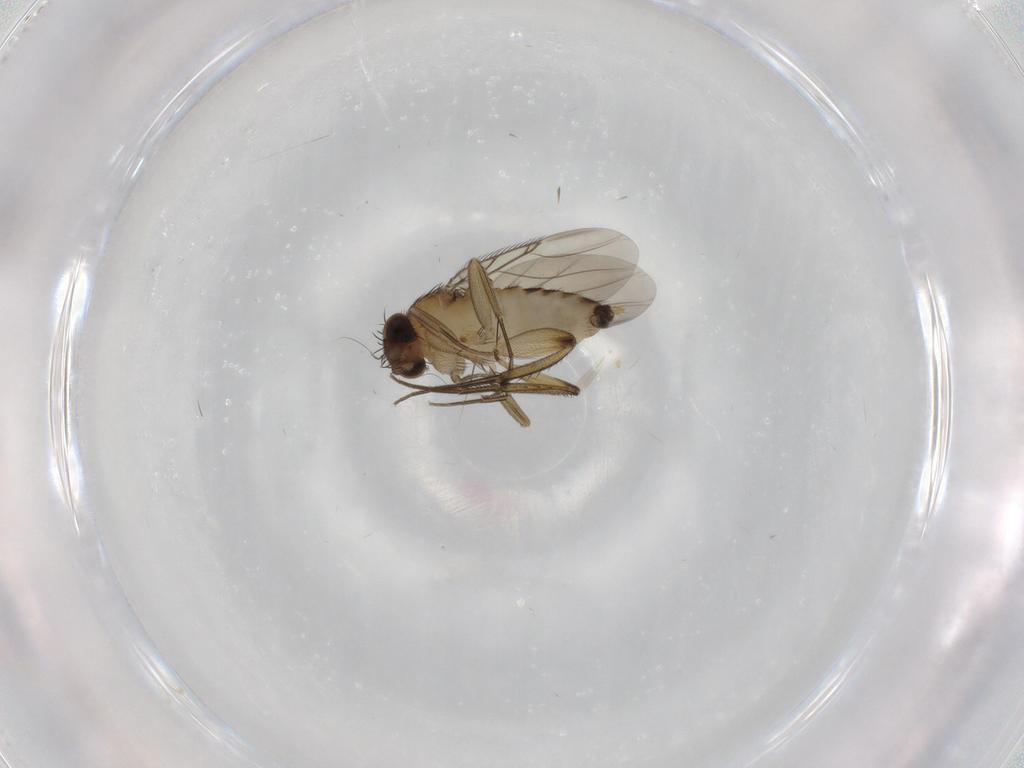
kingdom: Animalia
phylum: Arthropoda
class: Insecta
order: Diptera
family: Phoridae
